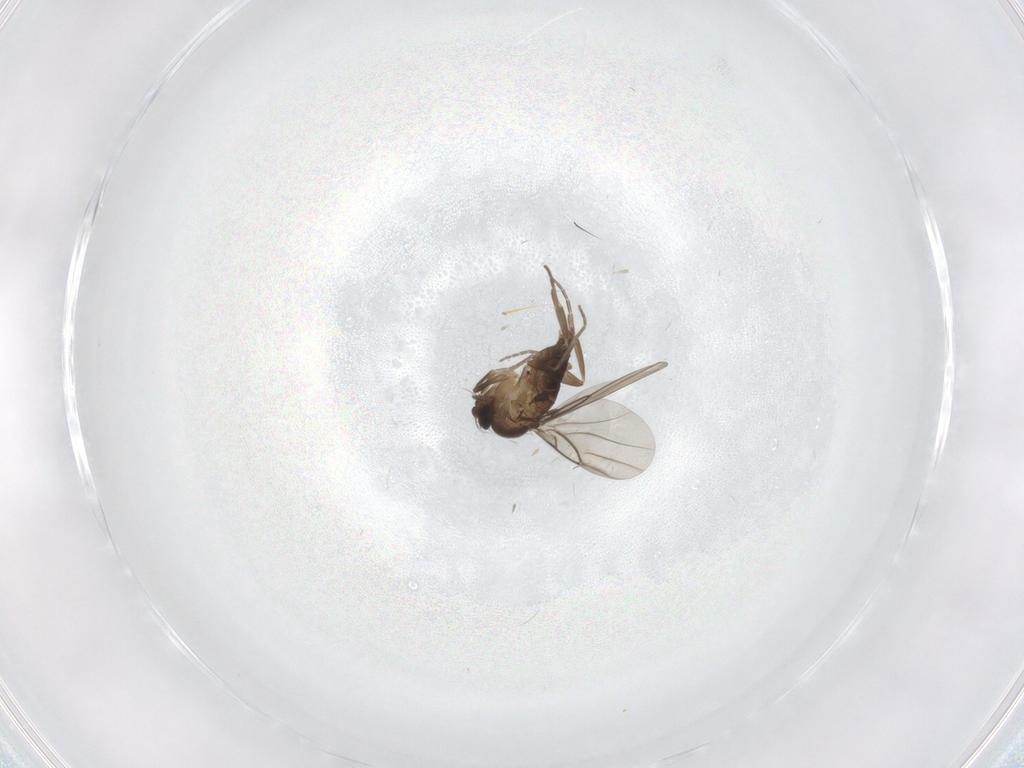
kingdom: Animalia
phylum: Arthropoda
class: Insecta
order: Diptera
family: Phoridae
